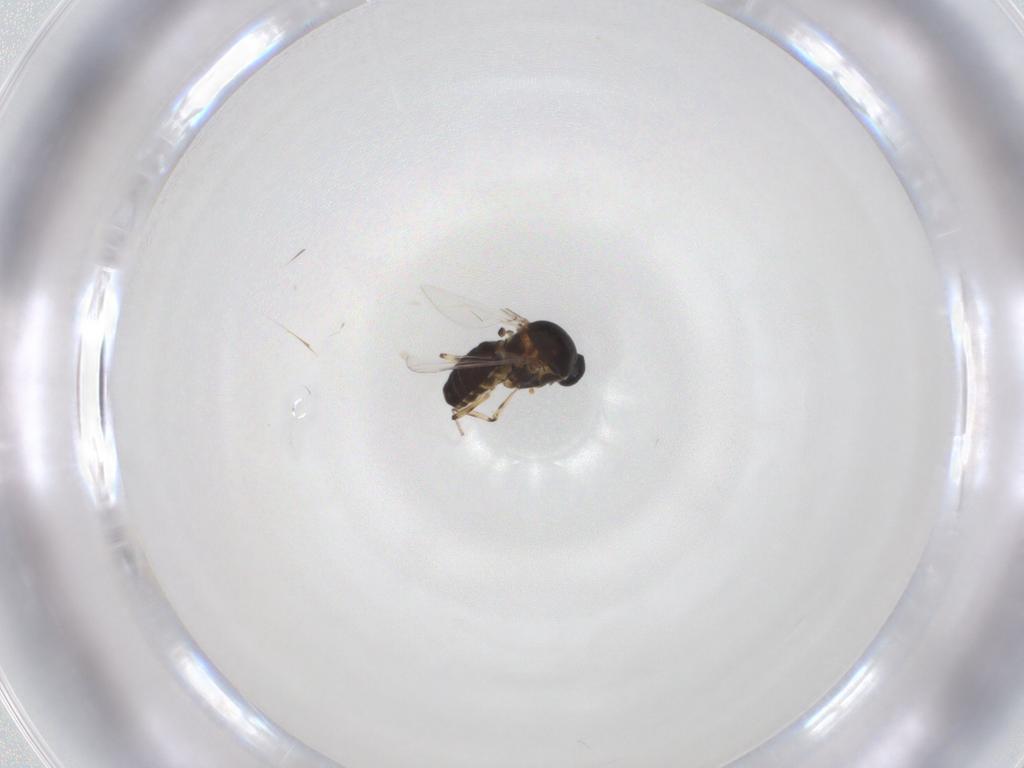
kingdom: Animalia
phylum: Arthropoda
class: Insecta
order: Diptera
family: Ceratopogonidae
